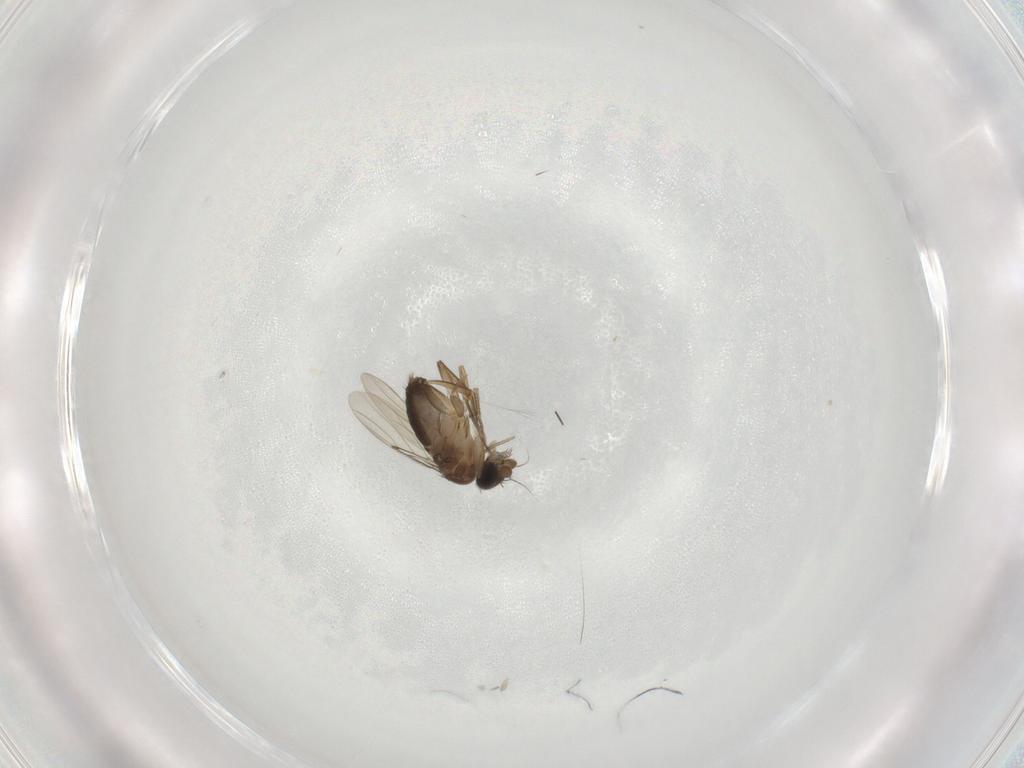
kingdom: Animalia
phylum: Arthropoda
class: Insecta
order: Diptera
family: Phoridae
